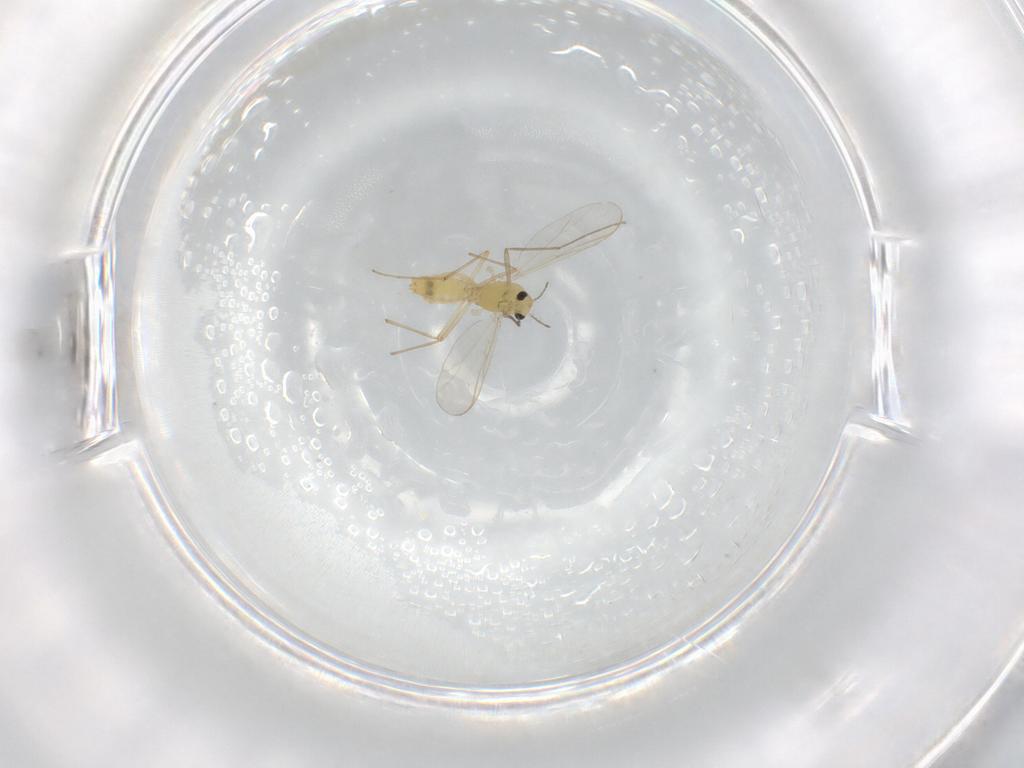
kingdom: Animalia
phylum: Arthropoda
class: Insecta
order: Diptera
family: Chironomidae
